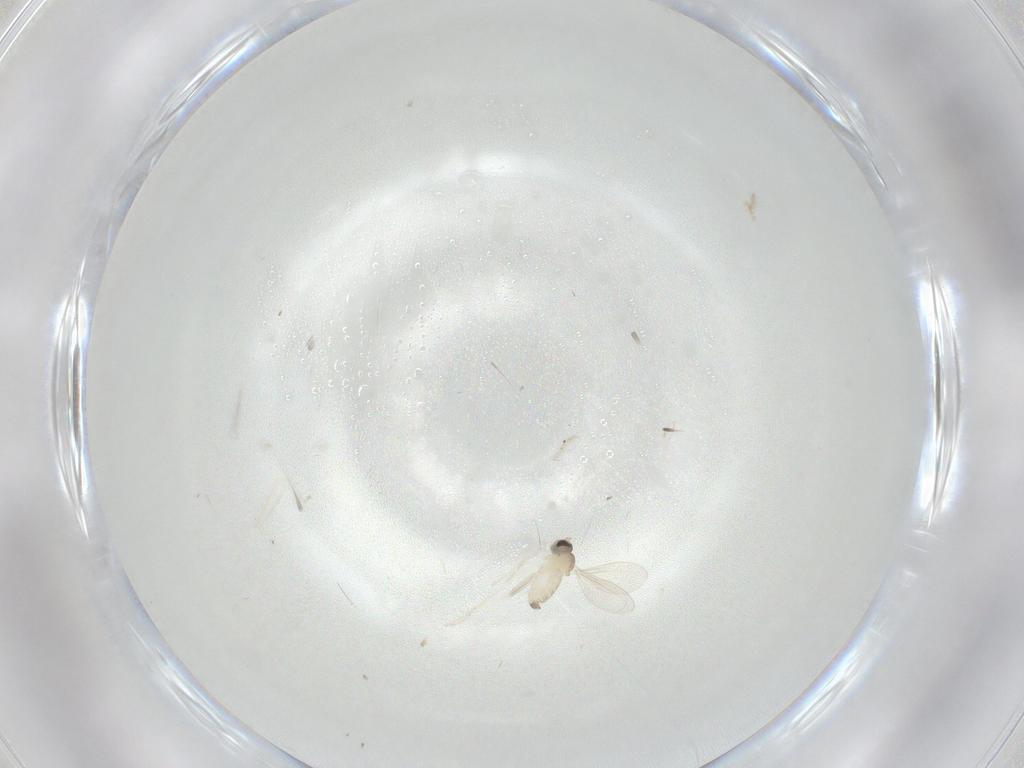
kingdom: Animalia
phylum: Arthropoda
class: Insecta
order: Diptera
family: Cecidomyiidae
